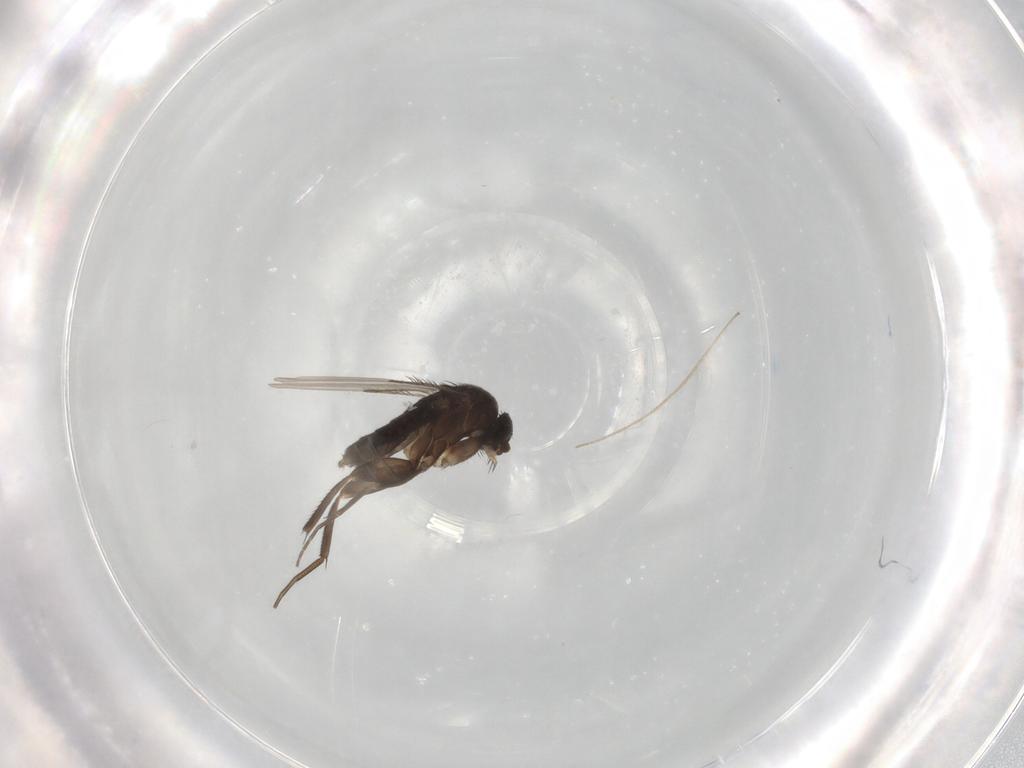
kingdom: Animalia
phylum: Arthropoda
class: Insecta
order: Diptera
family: Phoridae
